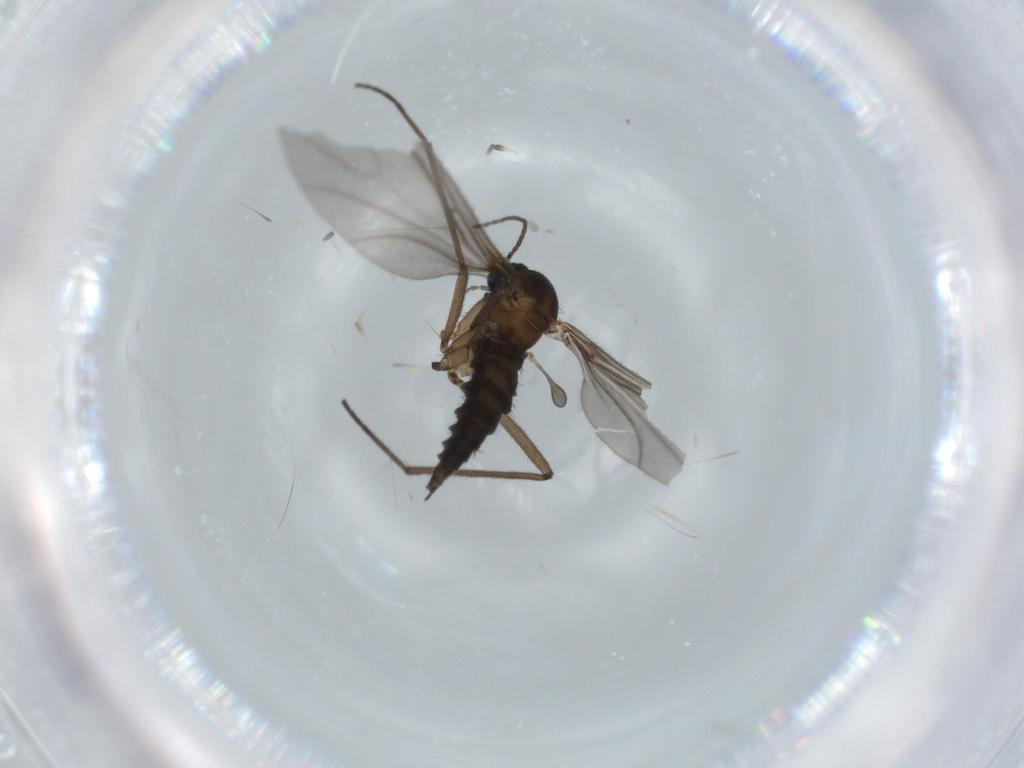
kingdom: Animalia
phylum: Arthropoda
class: Insecta
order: Diptera
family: Sciaridae
